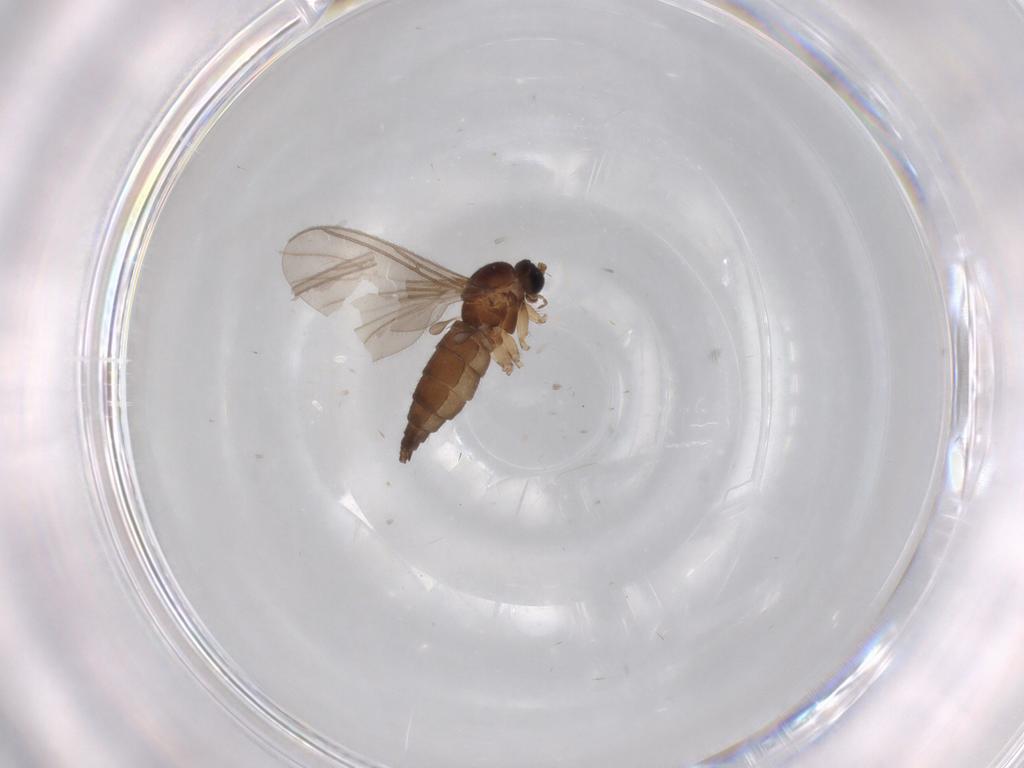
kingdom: Animalia
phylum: Arthropoda
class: Insecta
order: Diptera
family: Sciaridae
